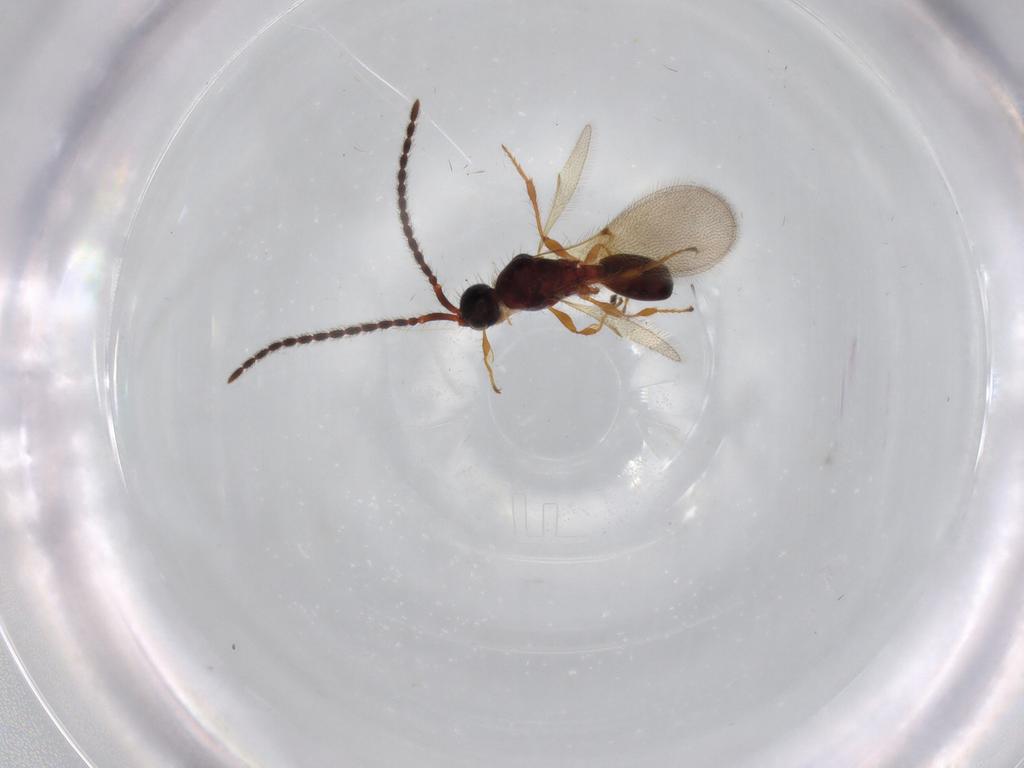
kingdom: Animalia
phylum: Arthropoda
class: Insecta
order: Hymenoptera
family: Diapriidae
